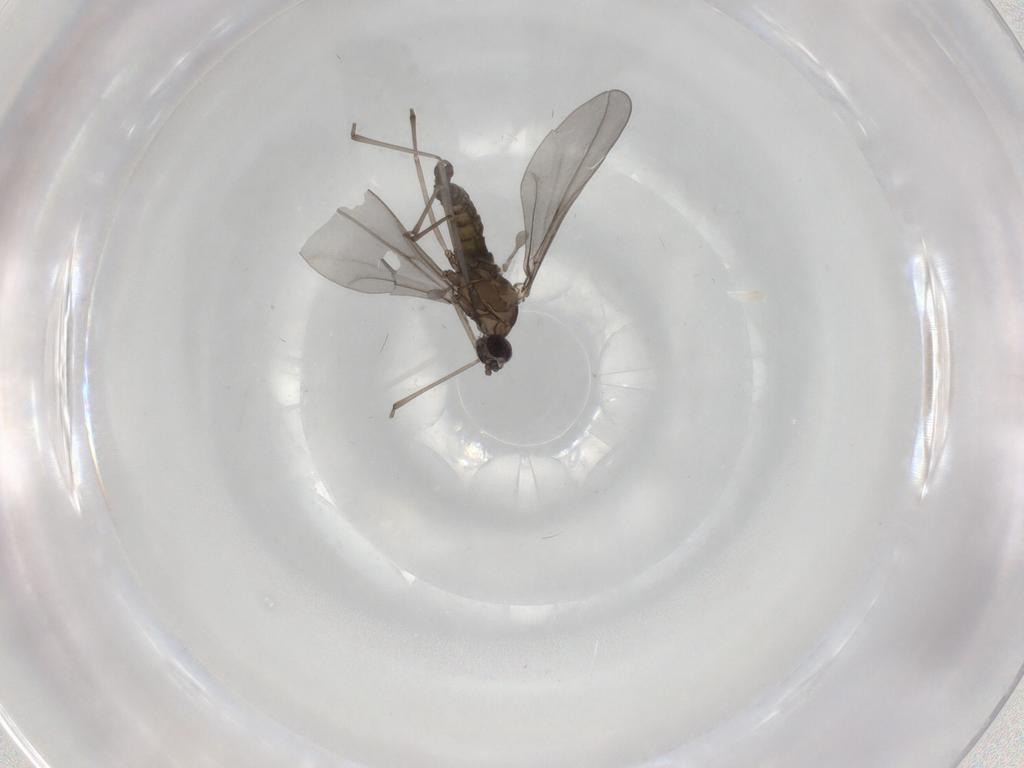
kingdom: Animalia
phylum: Arthropoda
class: Insecta
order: Diptera
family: Cecidomyiidae
